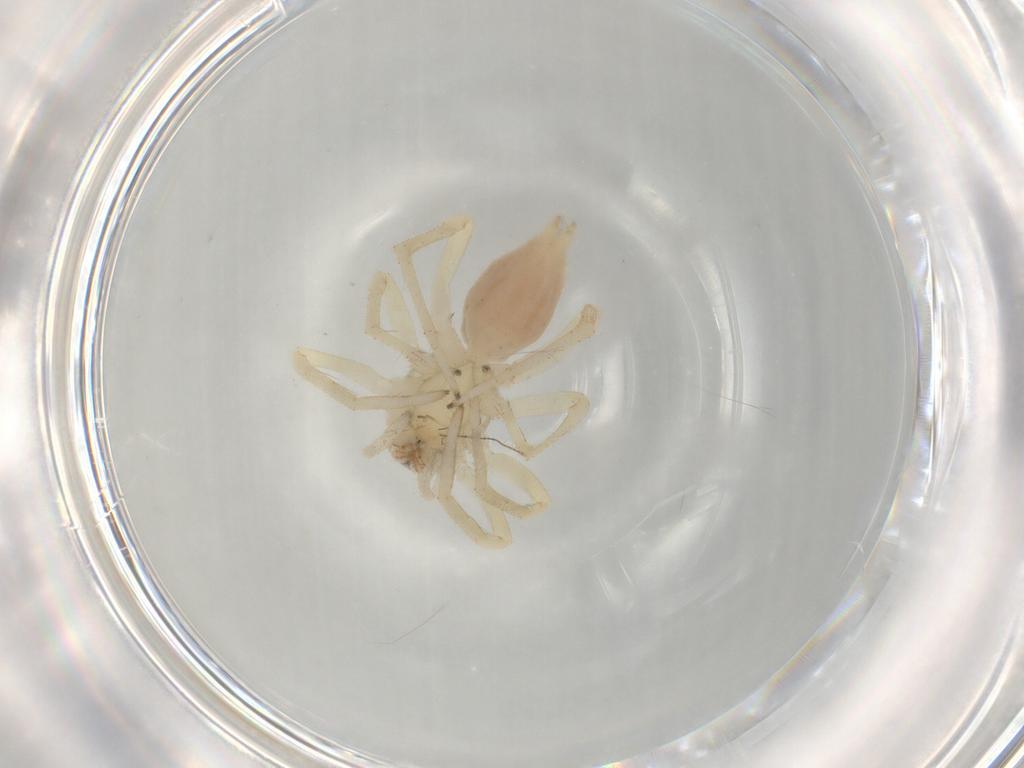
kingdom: Animalia
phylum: Arthropoda
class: Arachnida
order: Araneae
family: Clubionidae
